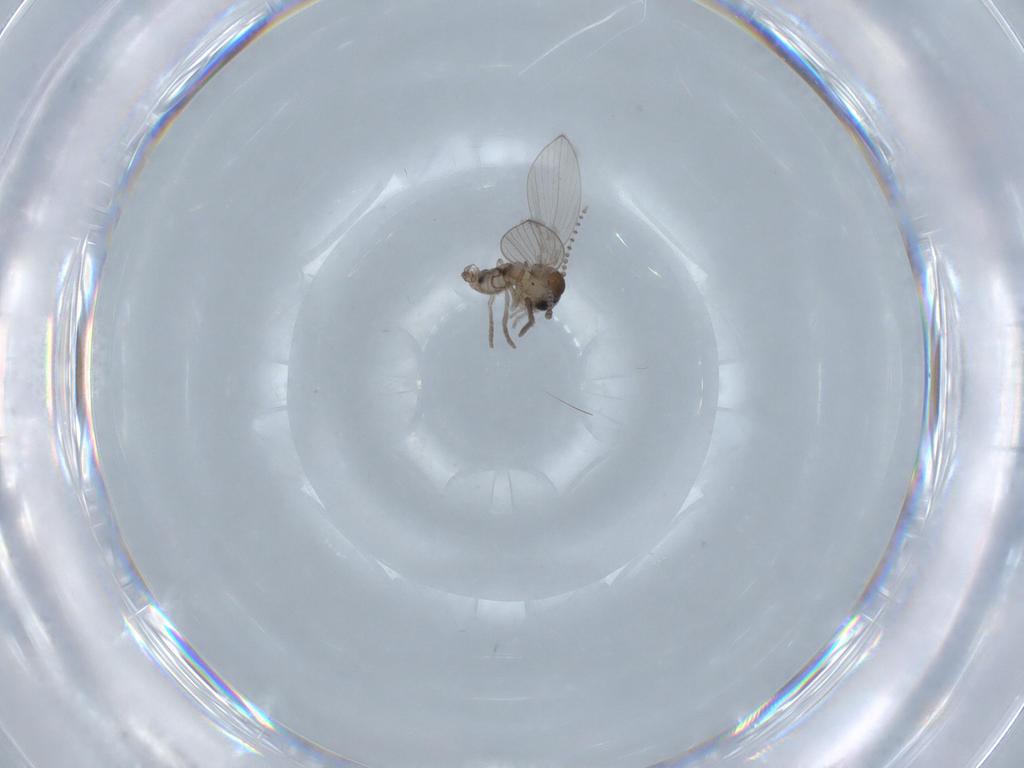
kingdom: Animalia
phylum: Arthropoda
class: Insecta
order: Diptera
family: Psychodidae
